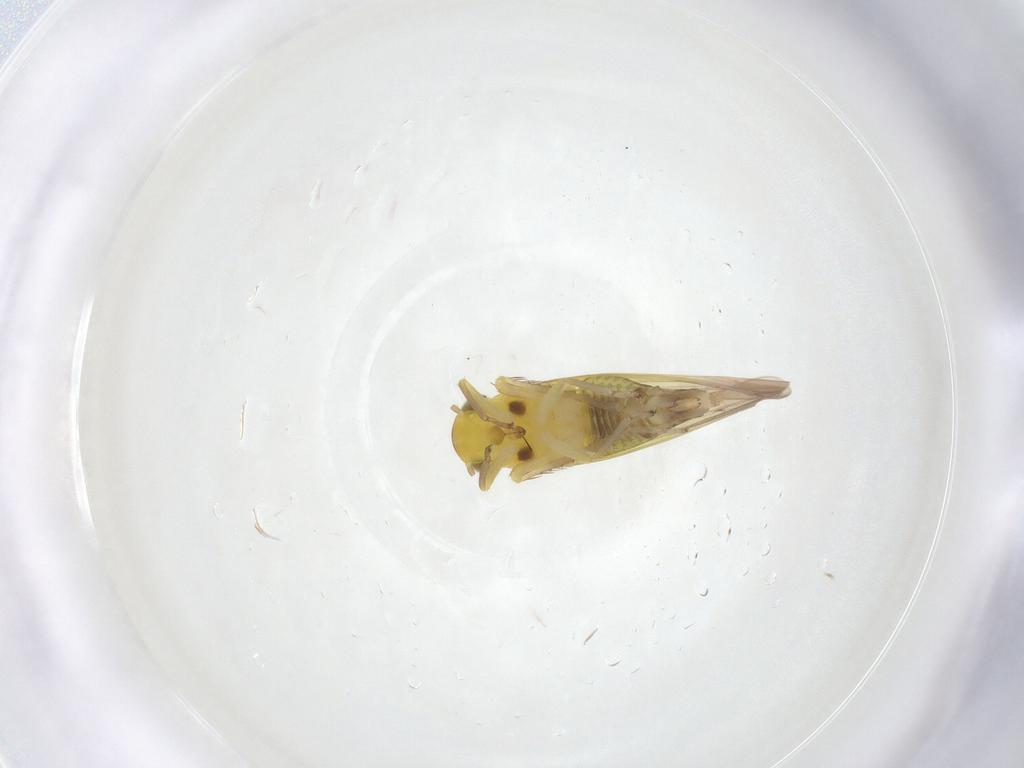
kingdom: Animalia
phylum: Arthropoda
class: Insecta
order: Hemiptera
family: Cicadellidae
